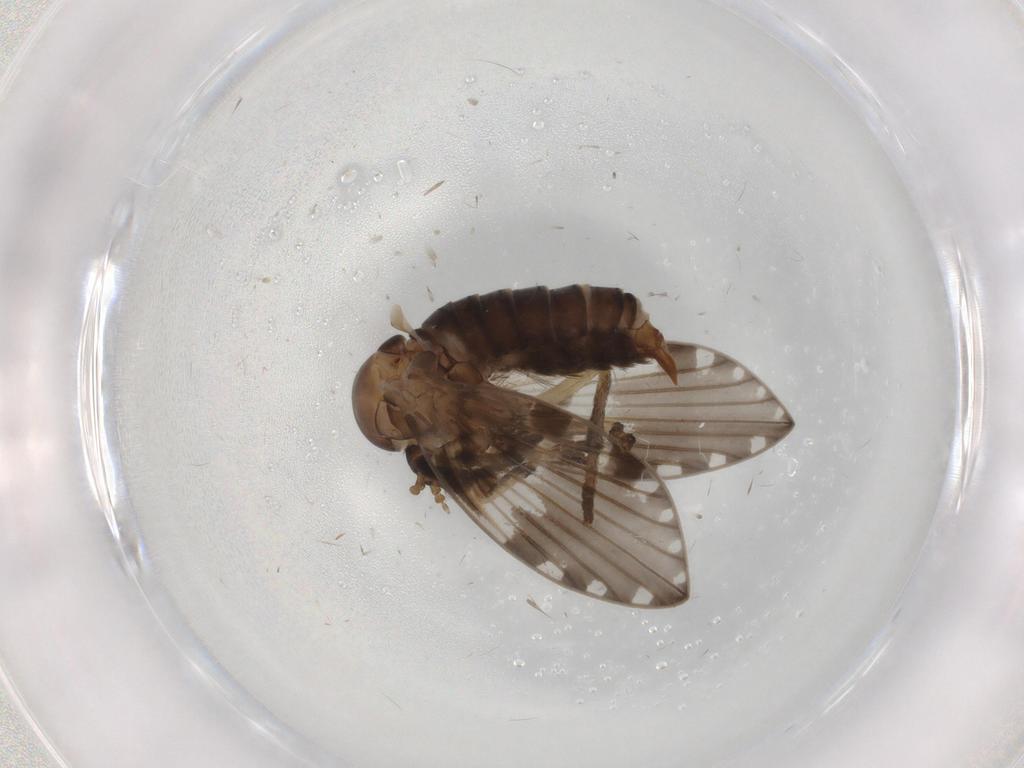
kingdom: Animalia
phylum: Arthropoda
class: Insecta
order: Diptera
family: Psychodidae
